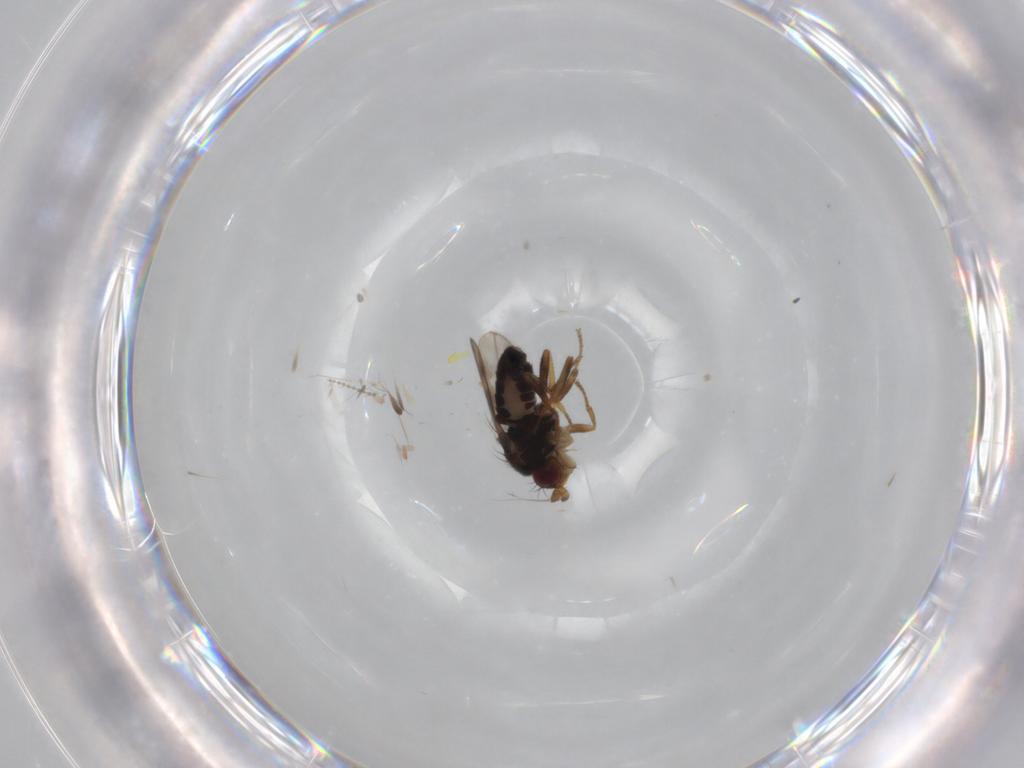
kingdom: Animalia
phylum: Arthropoda
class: Insecta
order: Diptera
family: Sphaeroceridae
